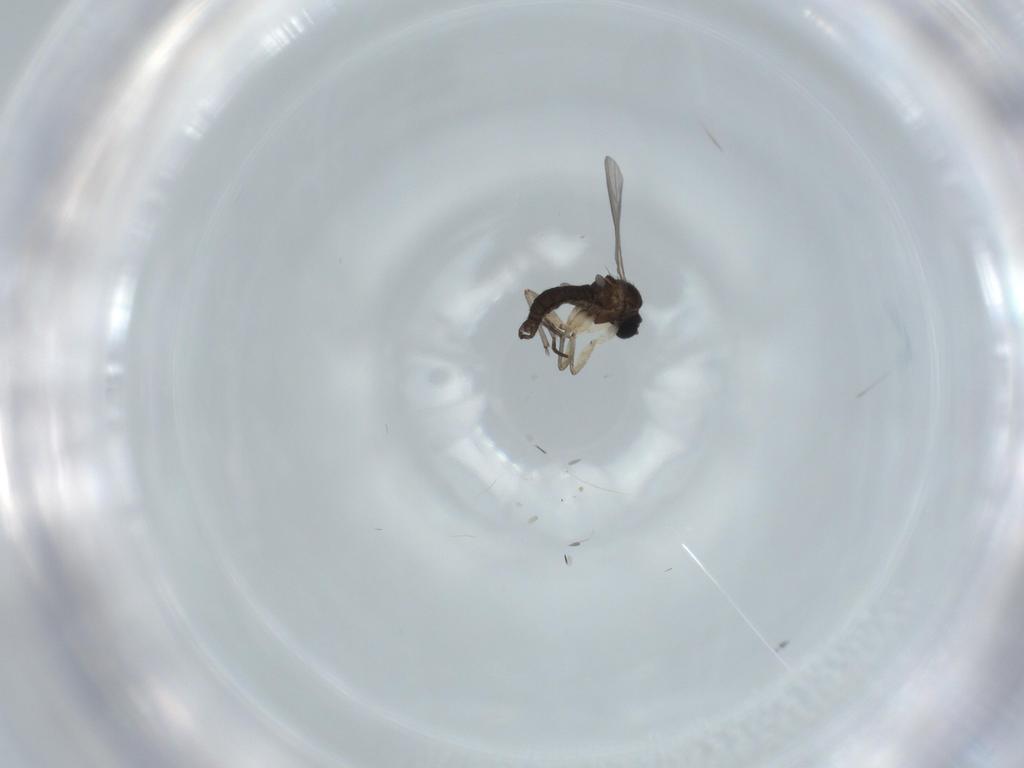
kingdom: Animalia
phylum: Arthropoda
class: Insecta
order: Diptera
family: Sciaridae
